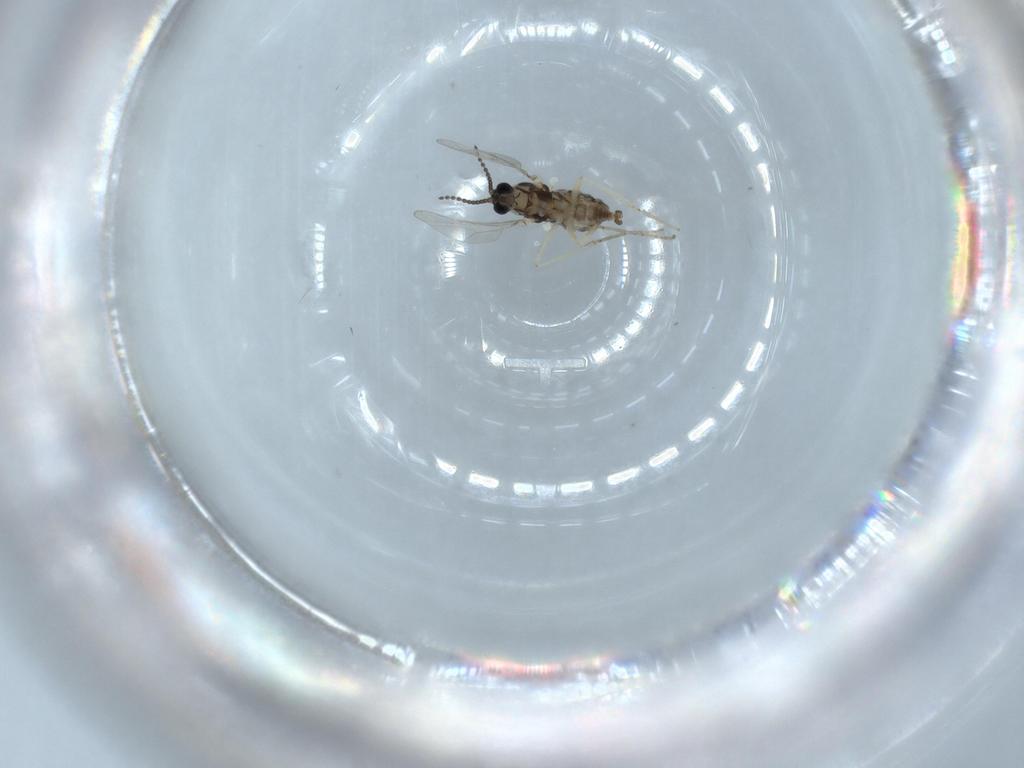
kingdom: Animalia
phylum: Arthropoda
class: Insecta
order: Diptera
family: Cecidomyiidae
